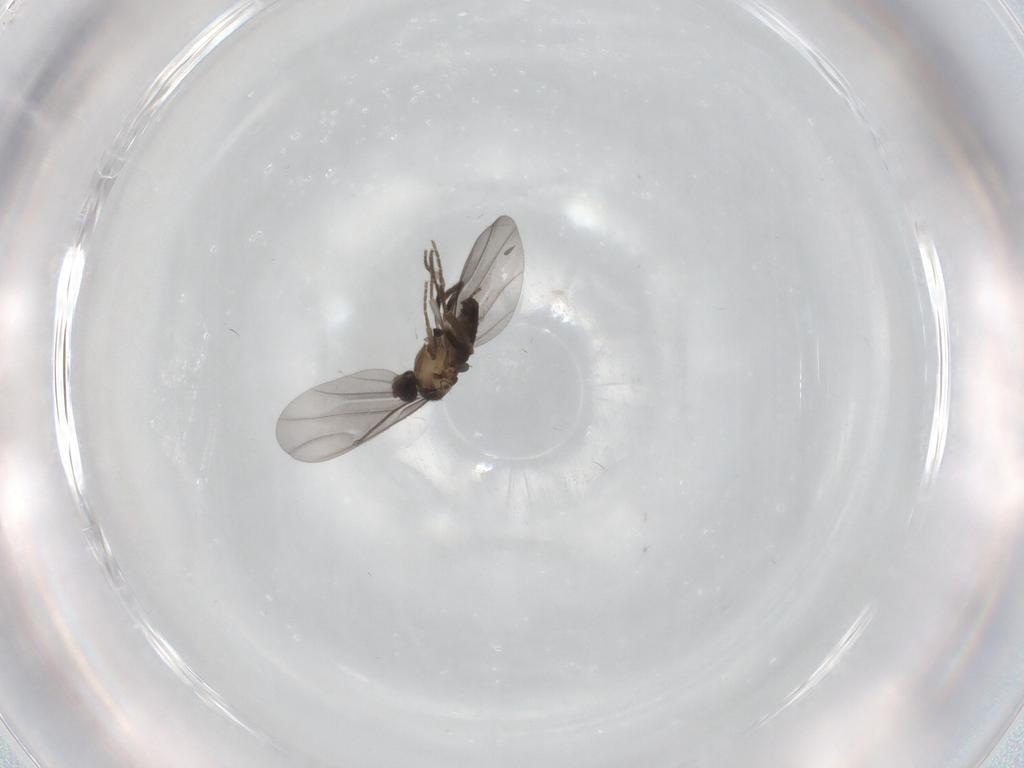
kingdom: Animalia
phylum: Arthropoda
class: Insecta
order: Diptera
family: Phoridae
